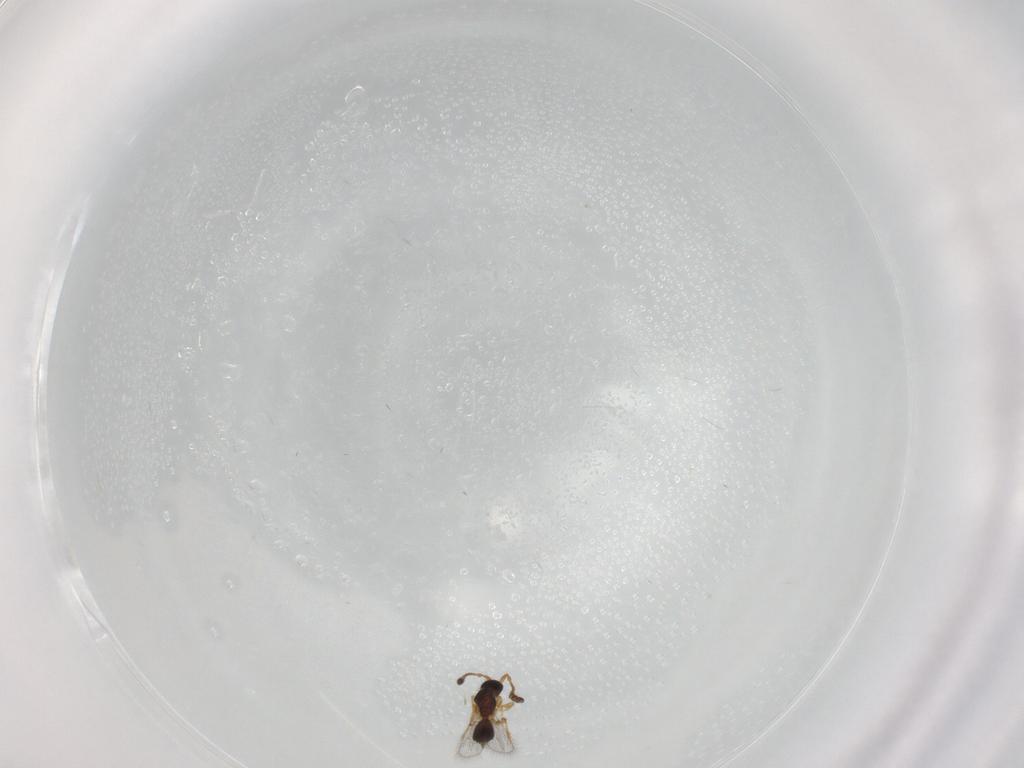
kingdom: Animalia
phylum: Arthropoda
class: Insecta
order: Hymenoptera
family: Diapriidae
